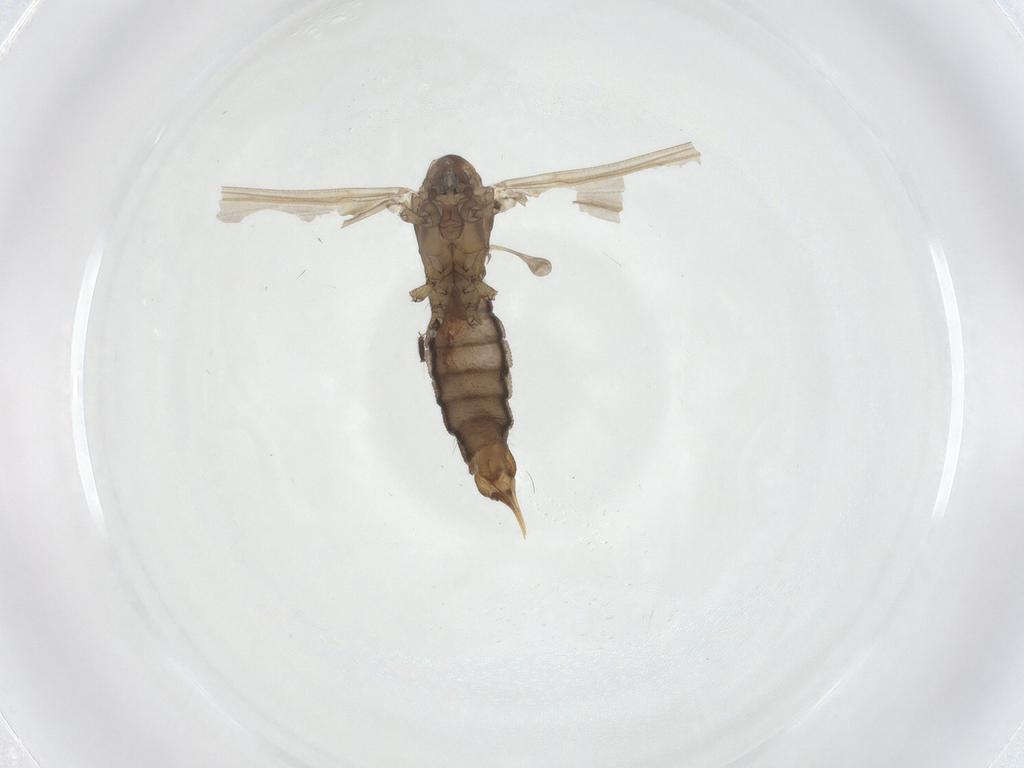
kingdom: Animalia
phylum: Arthropoda
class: Insecta
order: Diptera
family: Limoniidae
